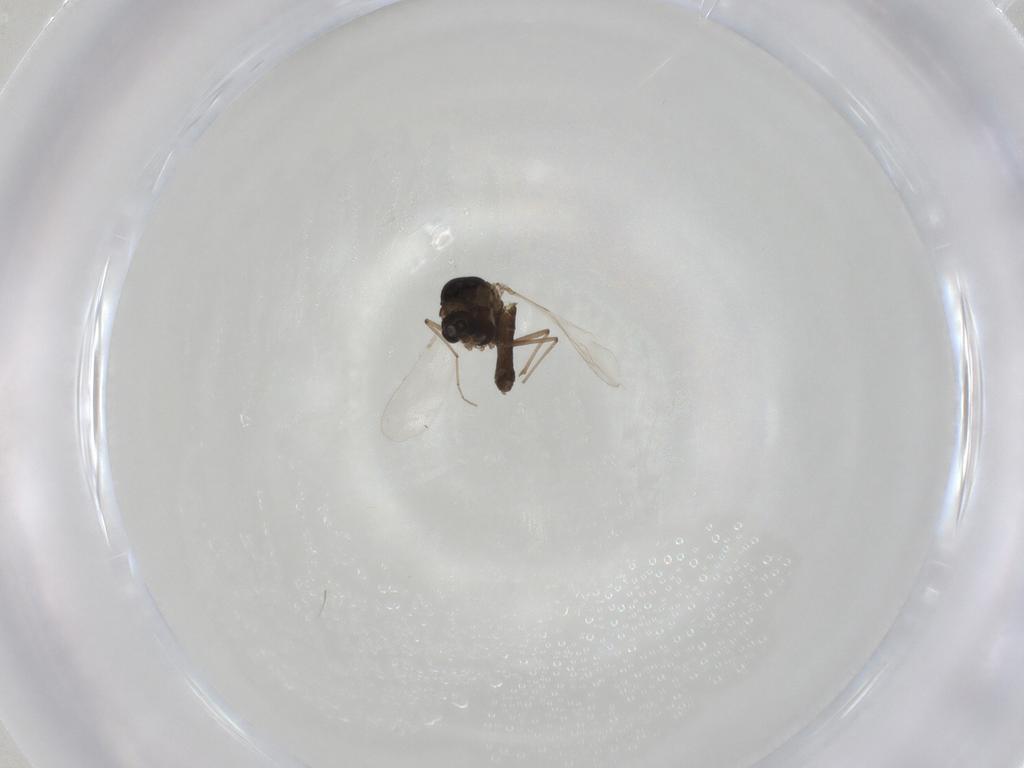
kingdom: Animalia
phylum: Arthropoda
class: Insecta
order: Diptera
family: Chironomidae
